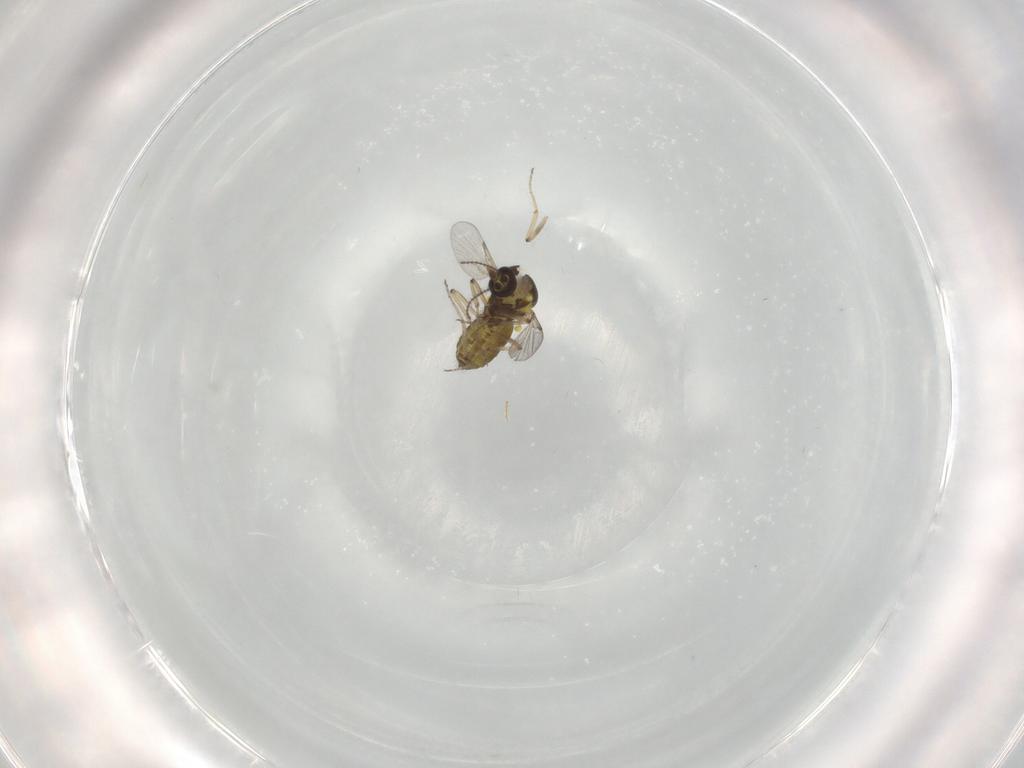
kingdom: Animalia
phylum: Arthropoda
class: Insecta
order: Diptera
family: Ceratopogonidae
